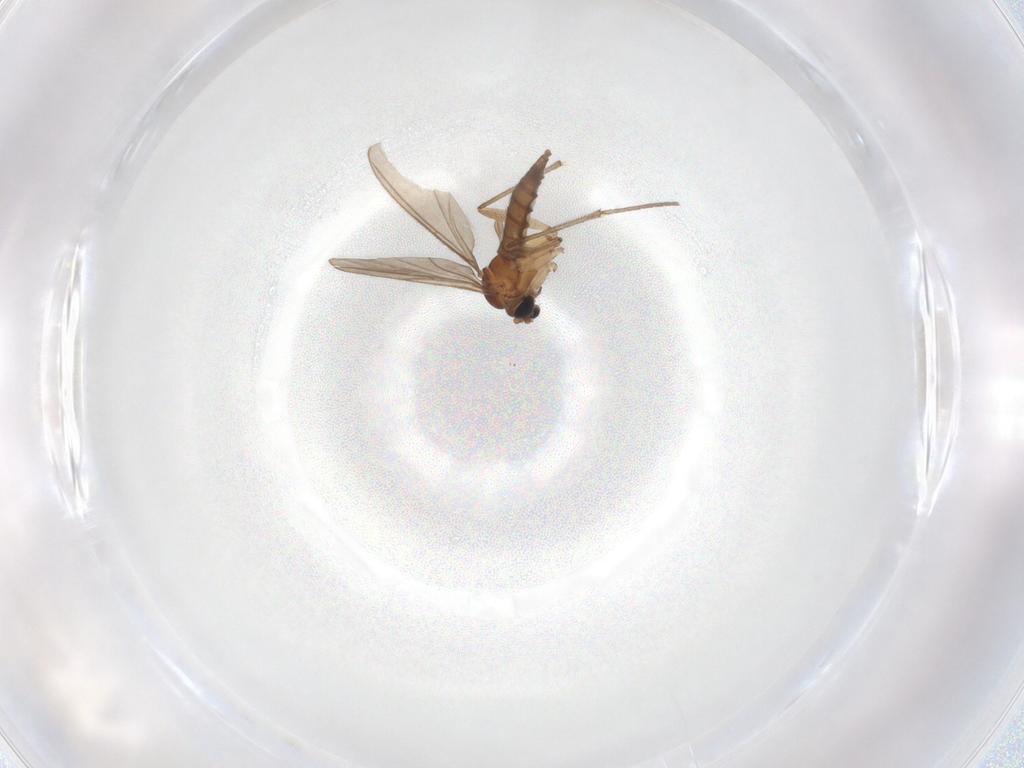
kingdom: Animalia
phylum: Arthropoda
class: Insecta
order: Diptera
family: Sciaridae
